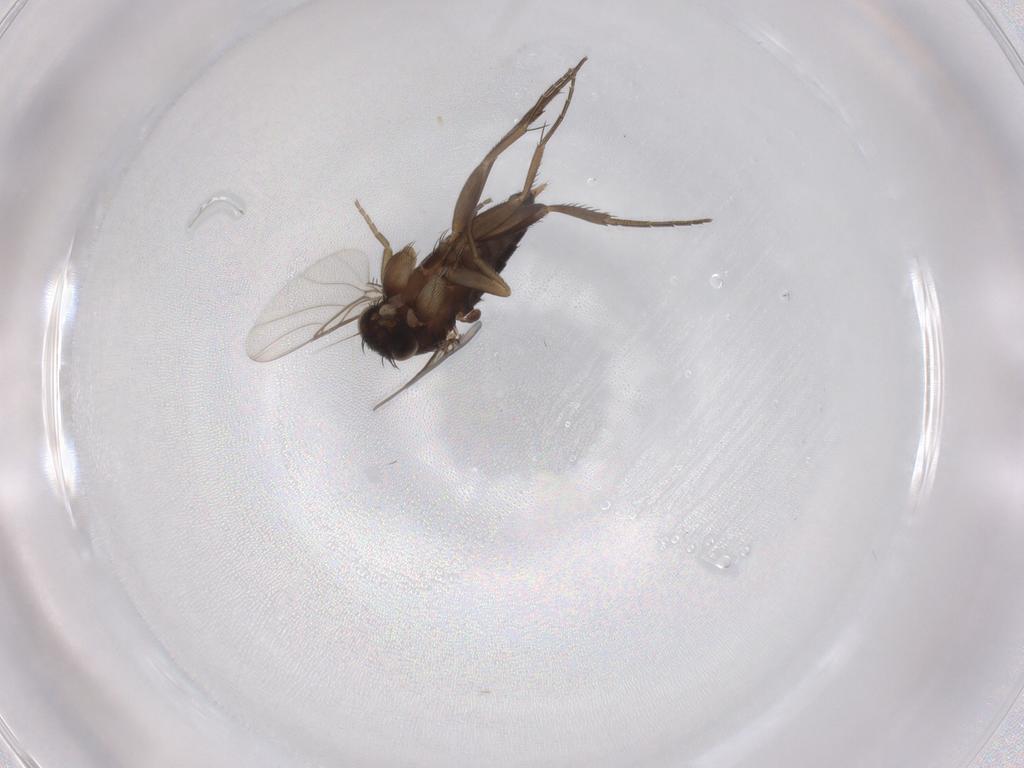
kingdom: Animalia
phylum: Arthropoda
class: Insecta
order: Diptera
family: Phoridae
